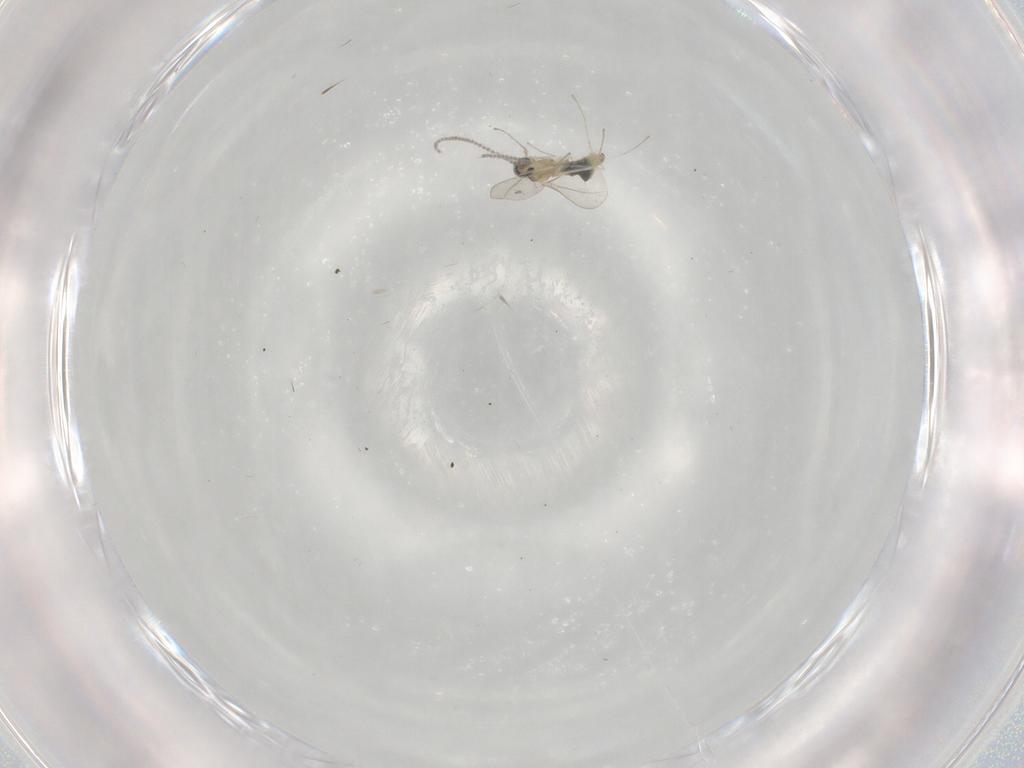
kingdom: Animalia
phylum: Arthropoda
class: Insecta
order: Diptera
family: Cecidomyiidae
